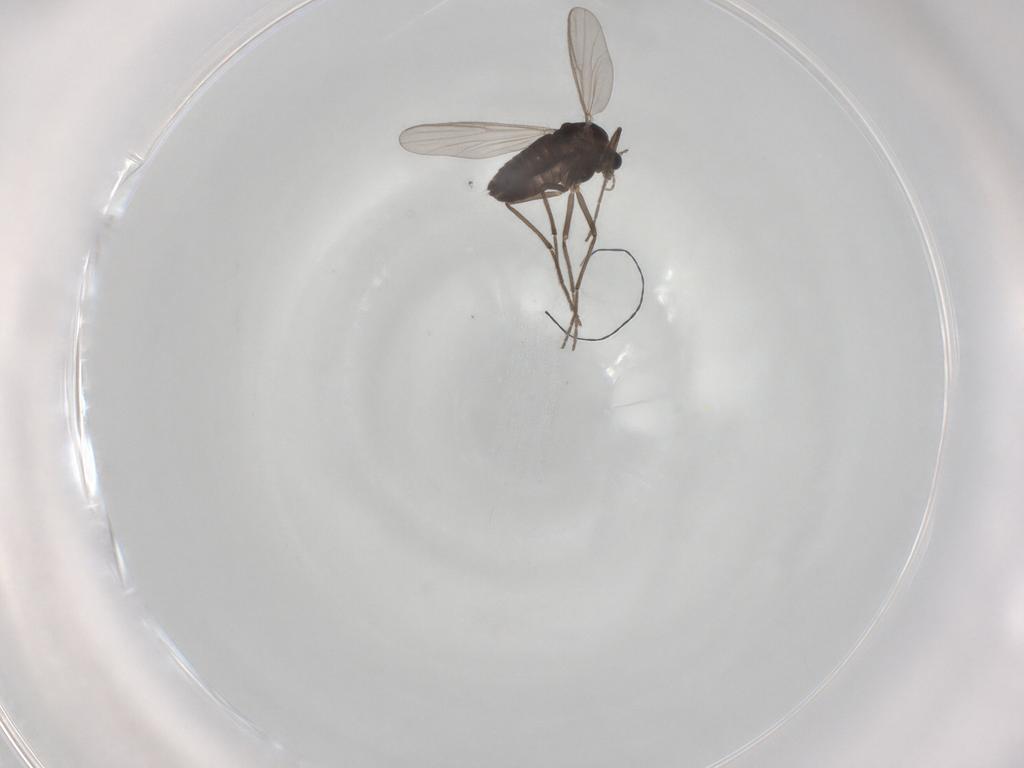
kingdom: Animalia
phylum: Arthropoda
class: Insecta
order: Diptera
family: Chironomidae
